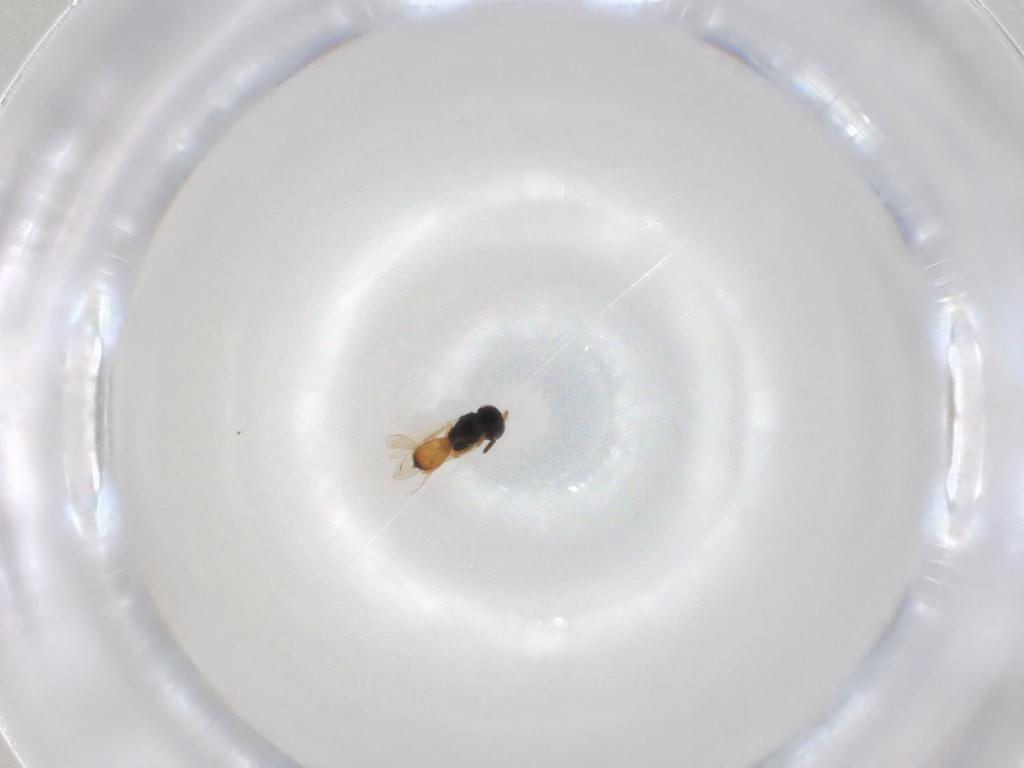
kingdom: Animalia
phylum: Arthropoda
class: Insecta
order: Hymenoptera
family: Scelionidae
